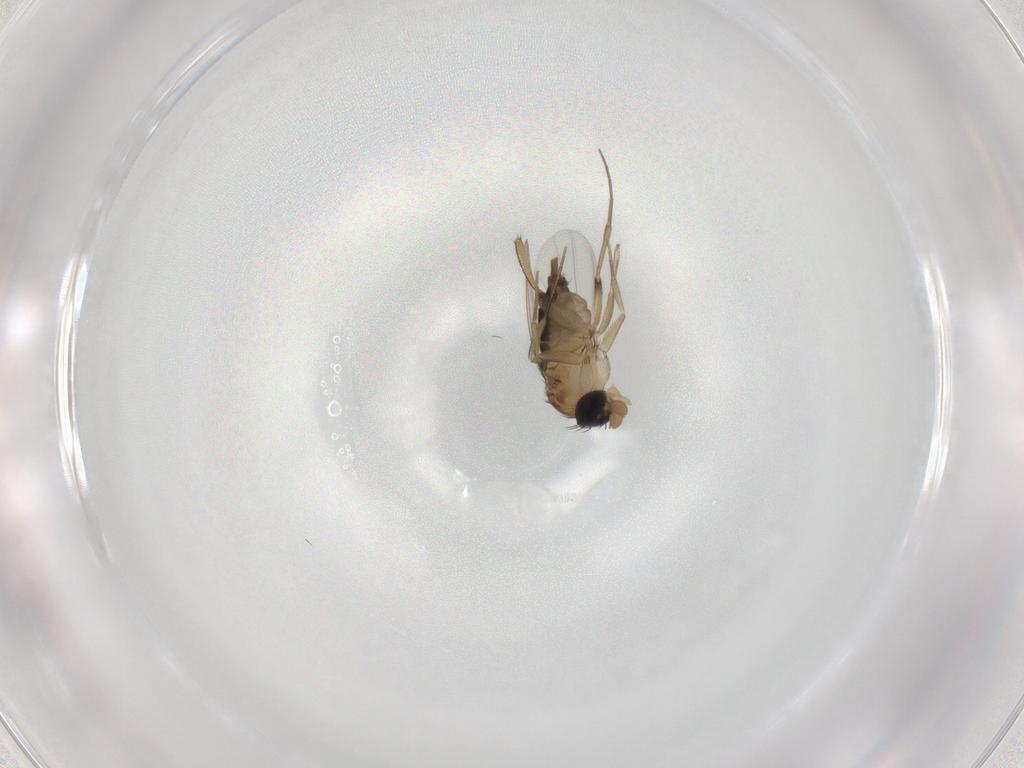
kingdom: Animalia
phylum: Arthropoda
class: Insecta
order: Diptera
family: Phoridae
